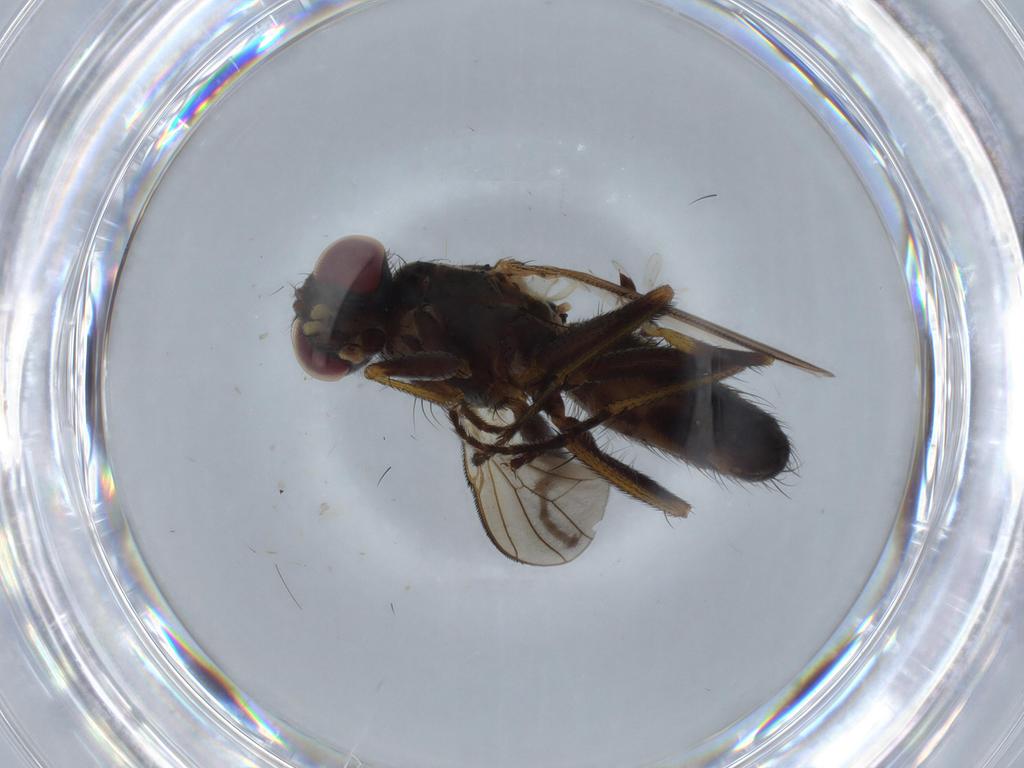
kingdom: Animalia
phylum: Arthropoda
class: Insecta
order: Diptera
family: Muscidae
